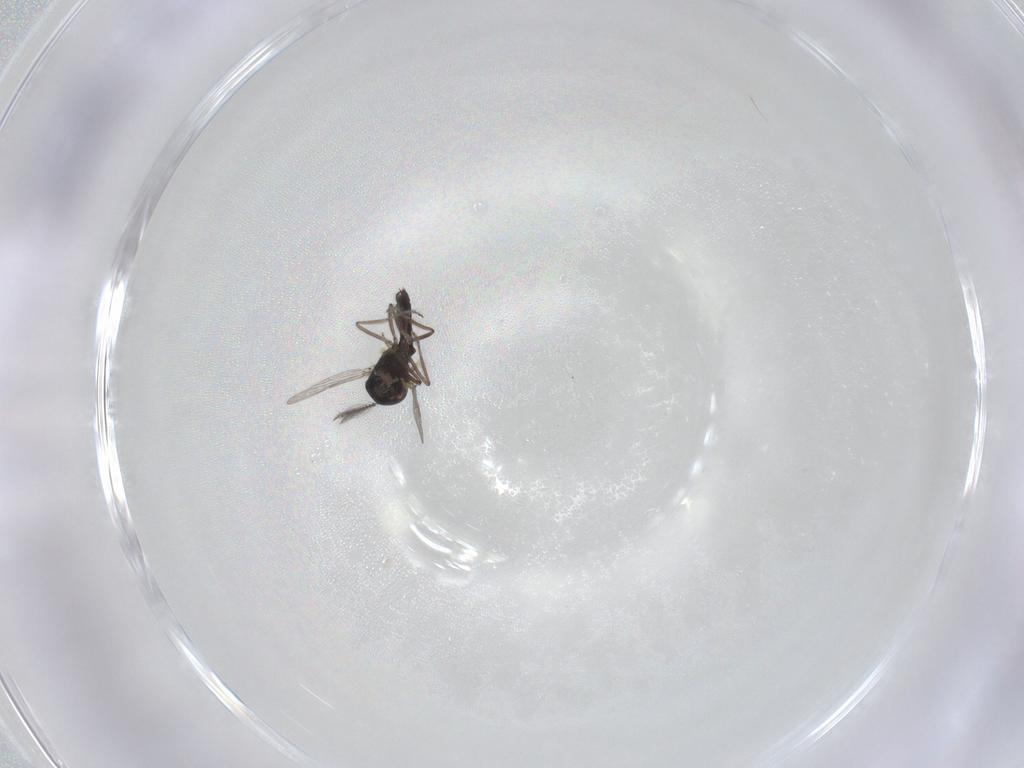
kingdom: Animalia
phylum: Arthropoda
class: Insecta
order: Diptera
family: Ceratopogonidae
